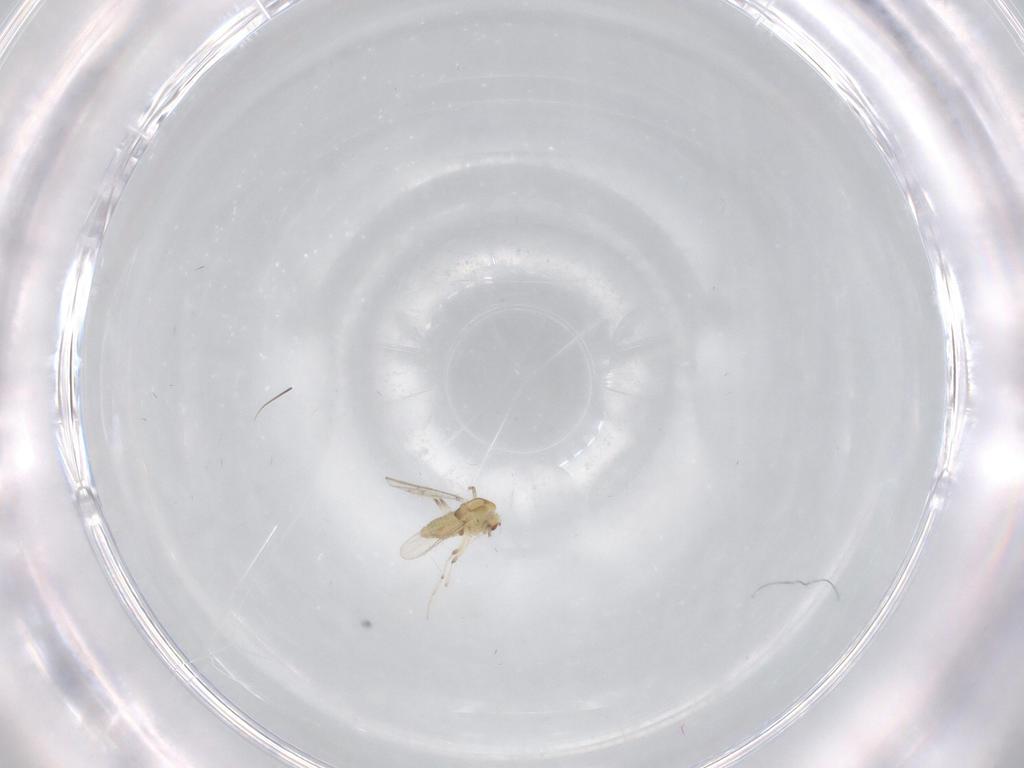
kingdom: Animalia
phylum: Arthropoda
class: Insecta
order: Diptera
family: Chironomidae
